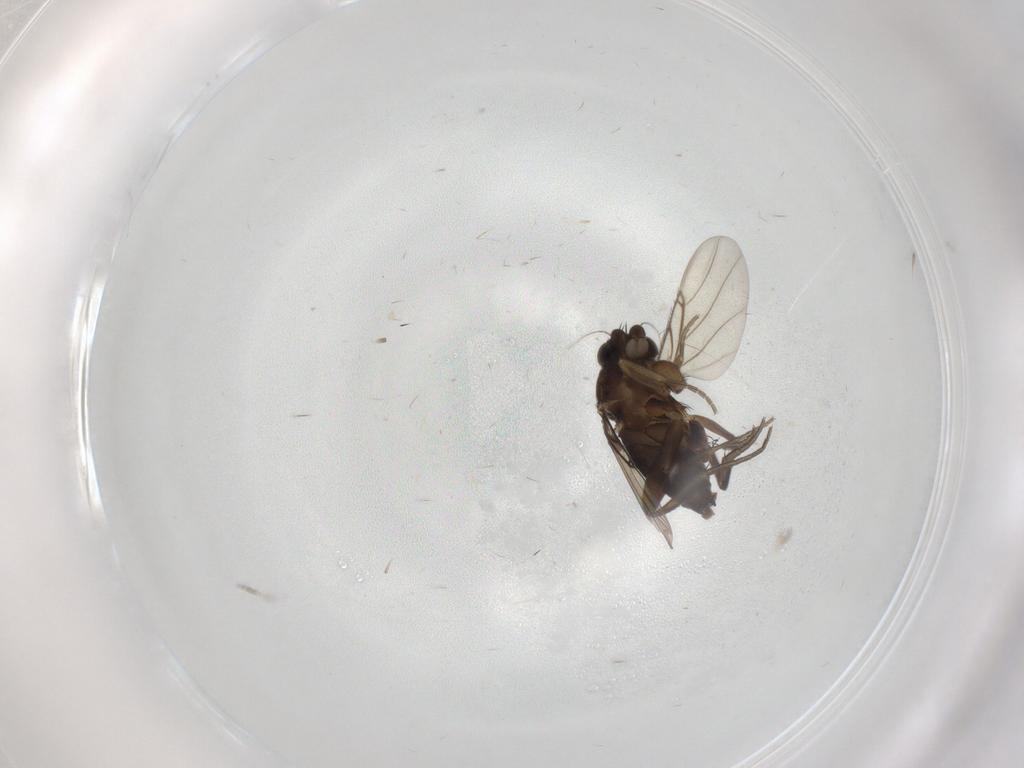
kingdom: Animalia
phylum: Arthropoda
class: Insecta
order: Diptera
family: Phoridae
